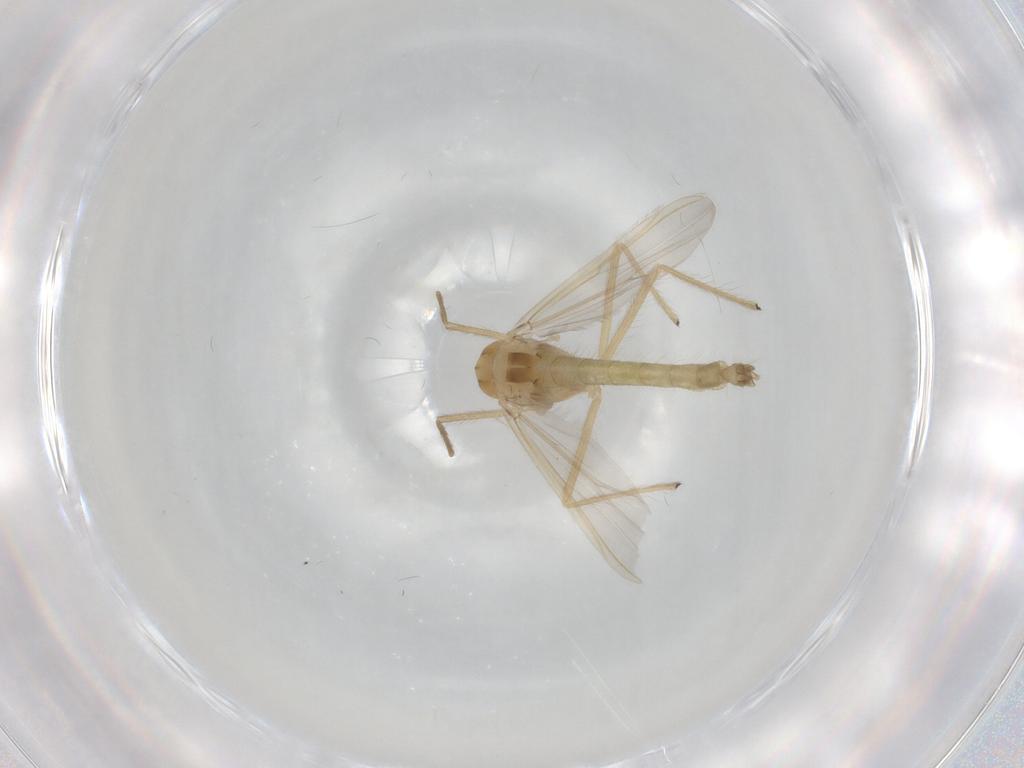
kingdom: Animalia
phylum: Arthropoda
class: Insecta
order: Diptera
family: Chironomidae
